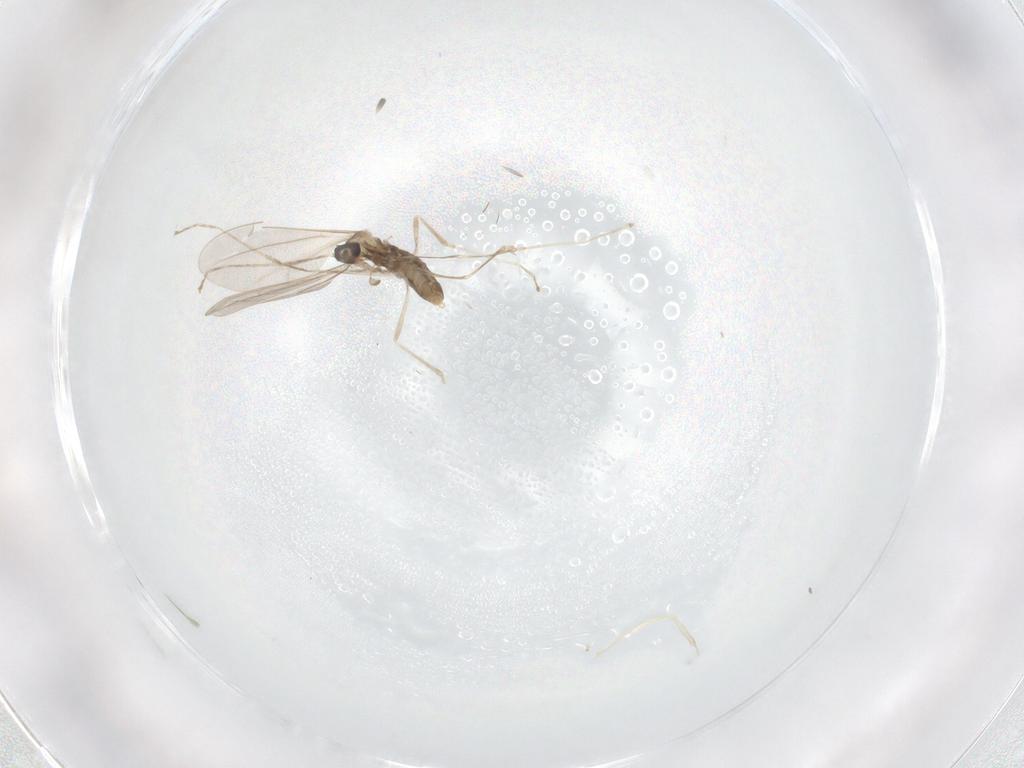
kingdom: Animalia
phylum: Arthropoda
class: Insecta
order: Diptera
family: Cecidomyiidae
